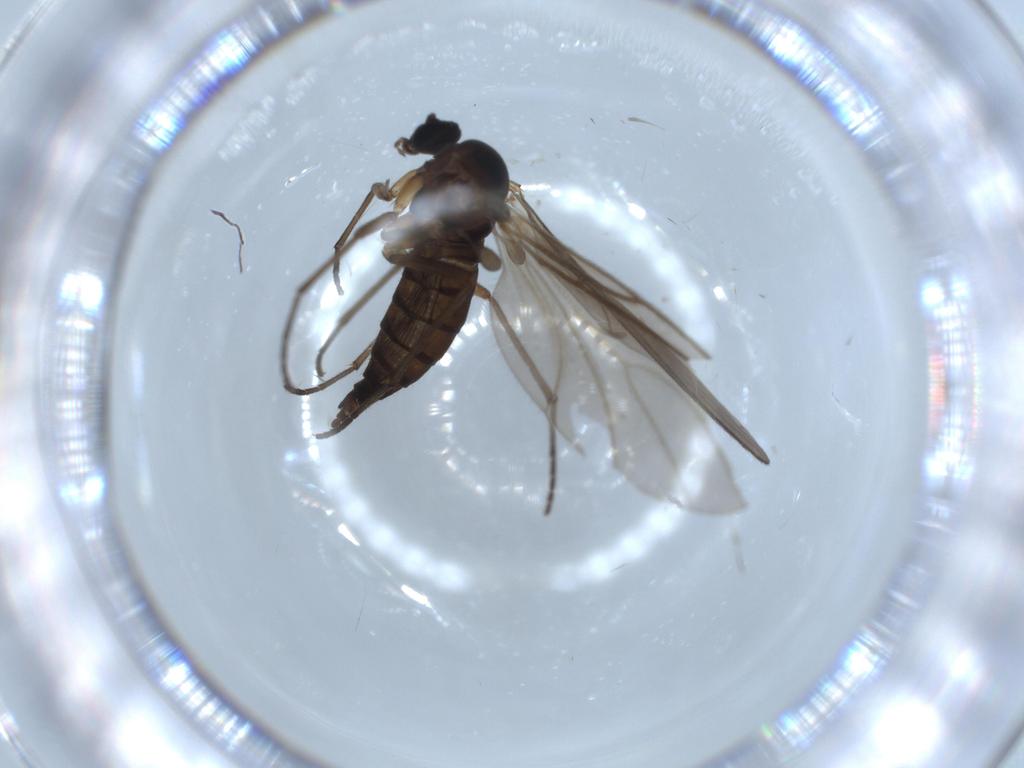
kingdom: Animalia
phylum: Arthropoda
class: Insecta
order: Diptera
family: Sciaridae
